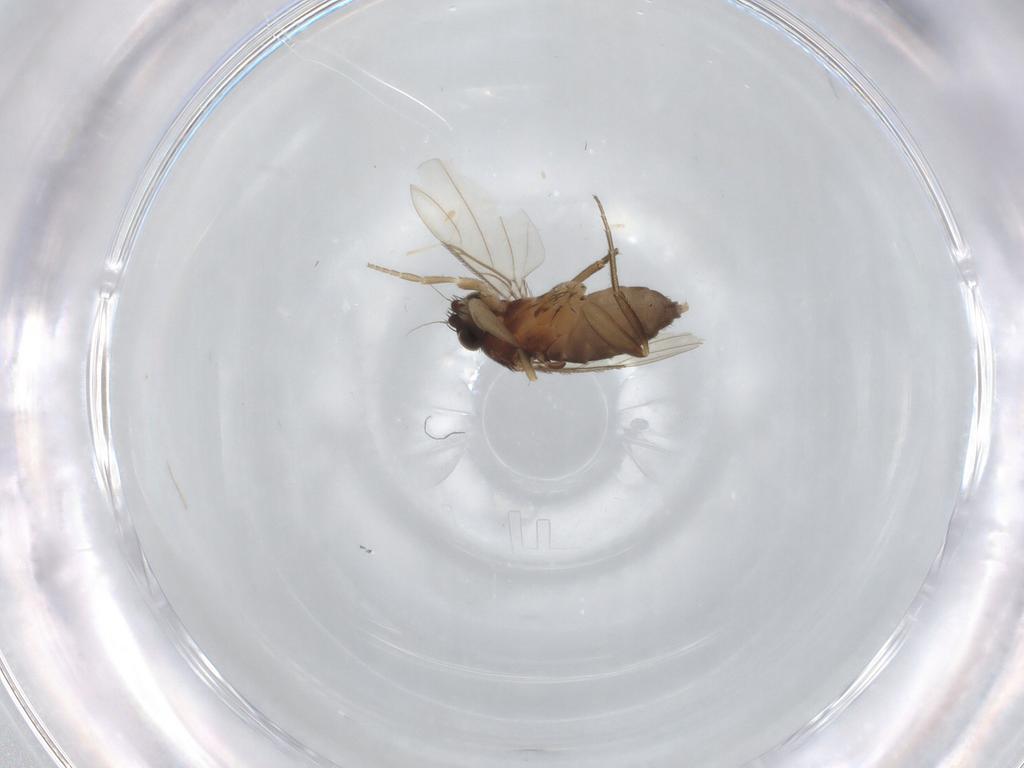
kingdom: Animalia
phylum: Arthropoda
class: Insecta
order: Diptera
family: Phoridae
